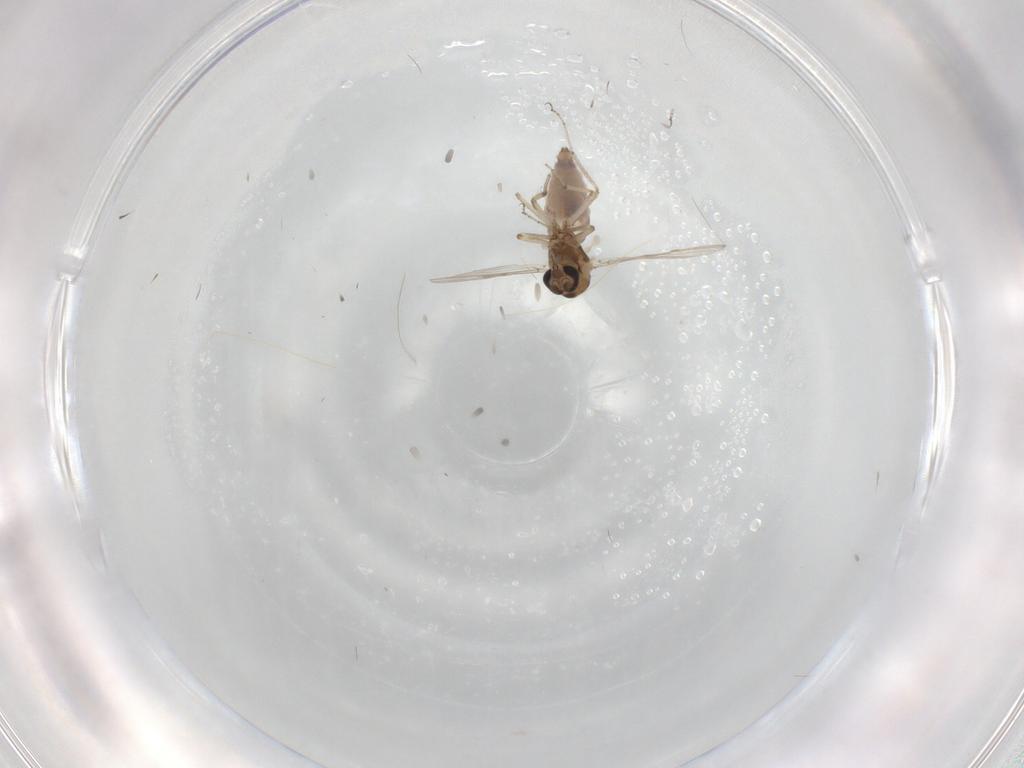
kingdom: Animalia
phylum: Arthropoda
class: Insecta
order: Diptera
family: Ceratopogonidae
